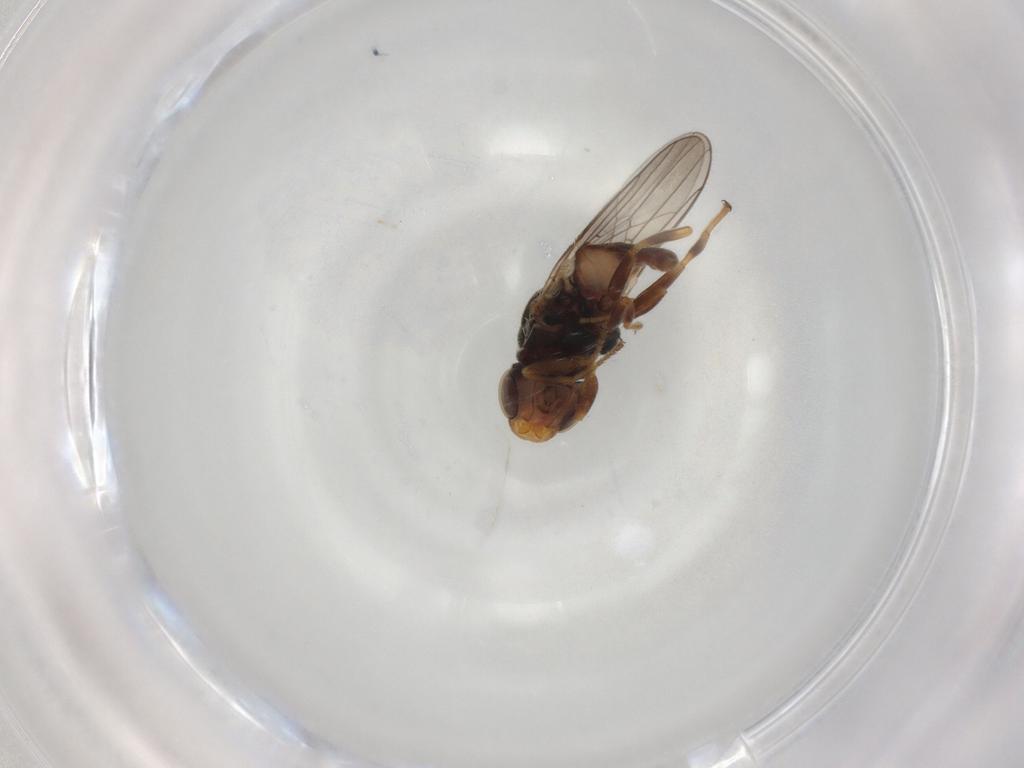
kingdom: Animalia
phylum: Arthropoda
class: Insecta
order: Diptera
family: Chloropidae
